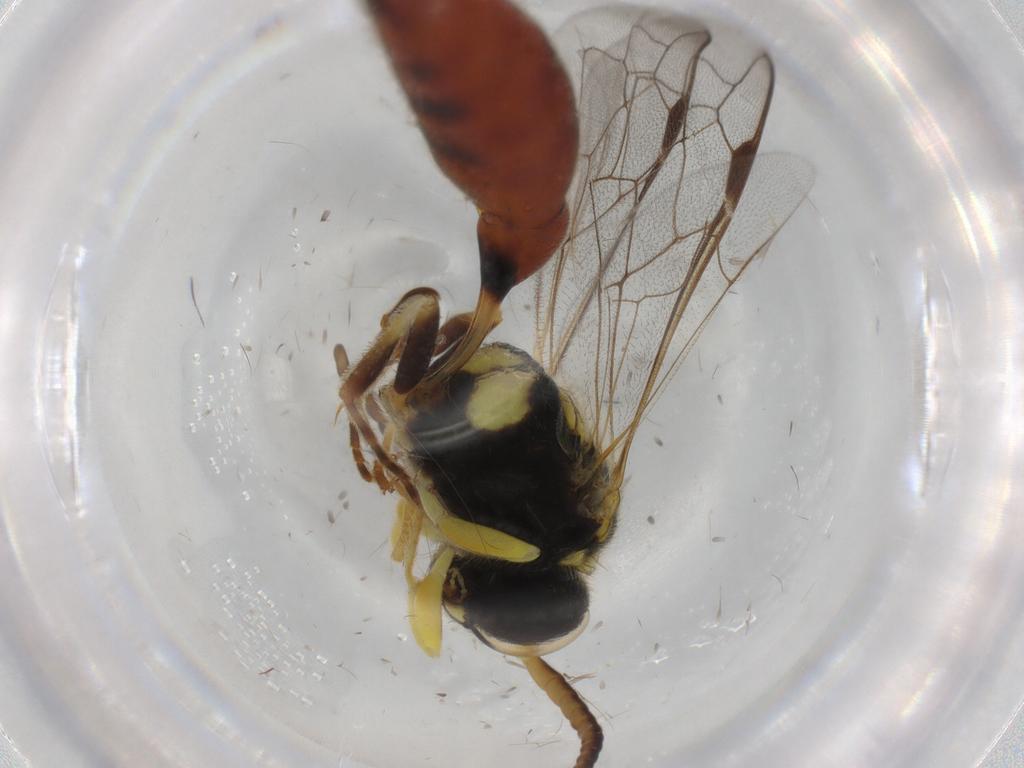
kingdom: Animalia
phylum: Arthropoda
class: Insecta
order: Hymenoptera
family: Crabronidae
